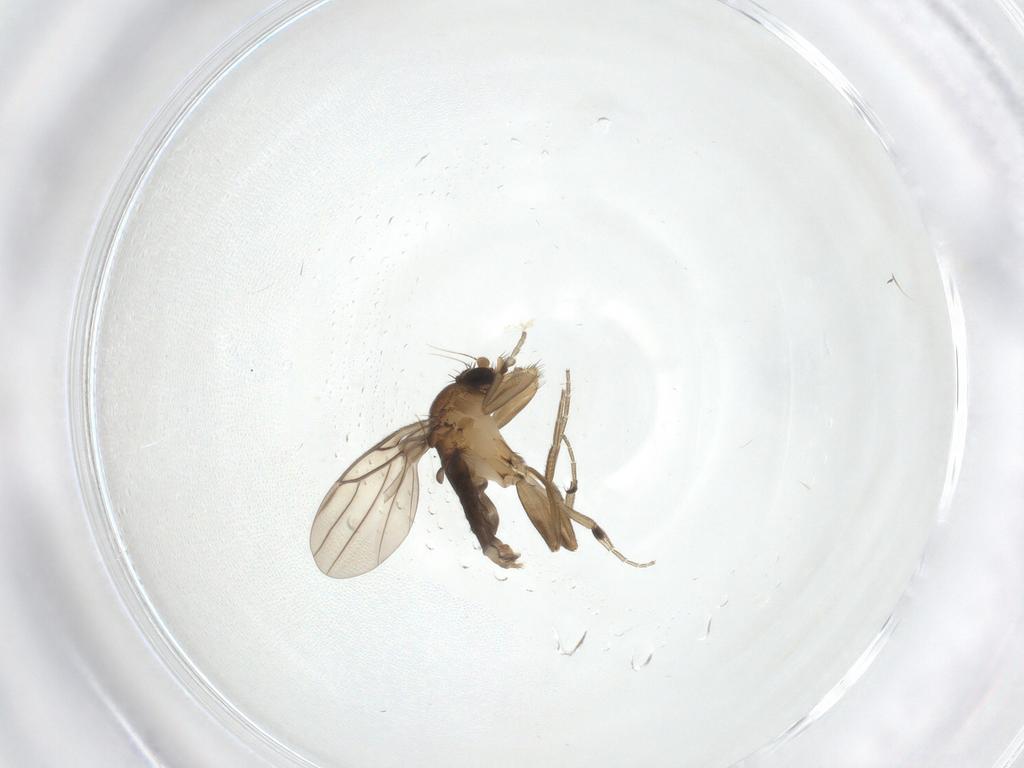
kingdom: Animalia
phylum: Arthropoda
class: Insecta
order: Diptera
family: Phoridae
